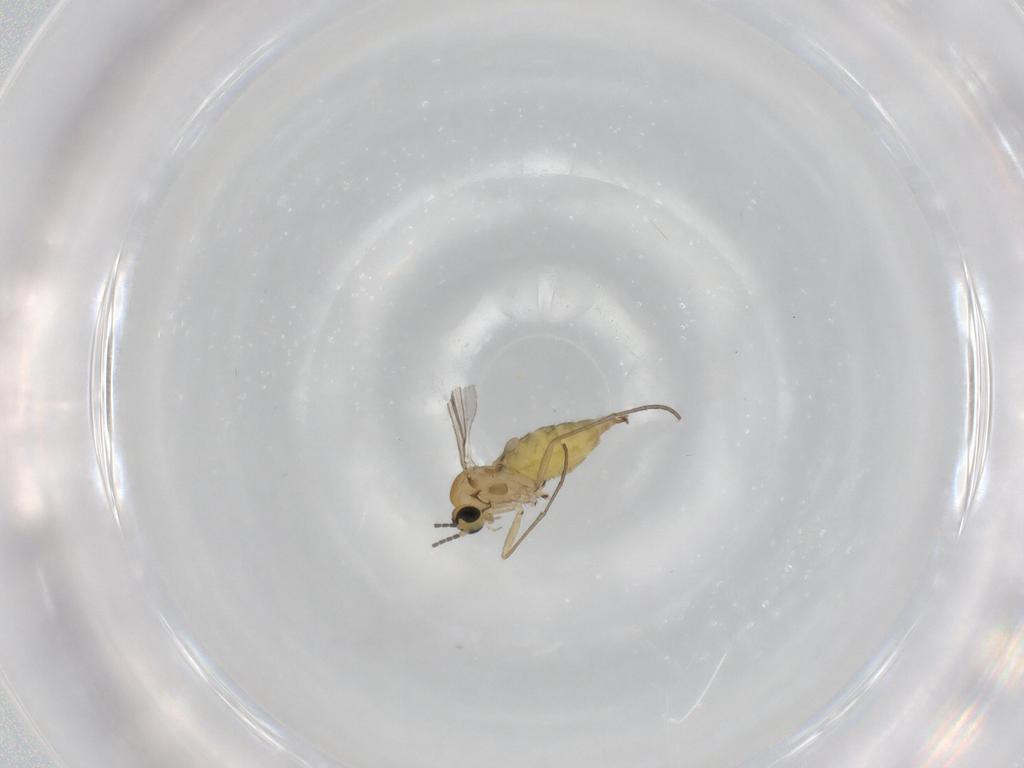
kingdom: Animalia
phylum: Arthropoda
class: Insecta
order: Diptera
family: Sciaridae
